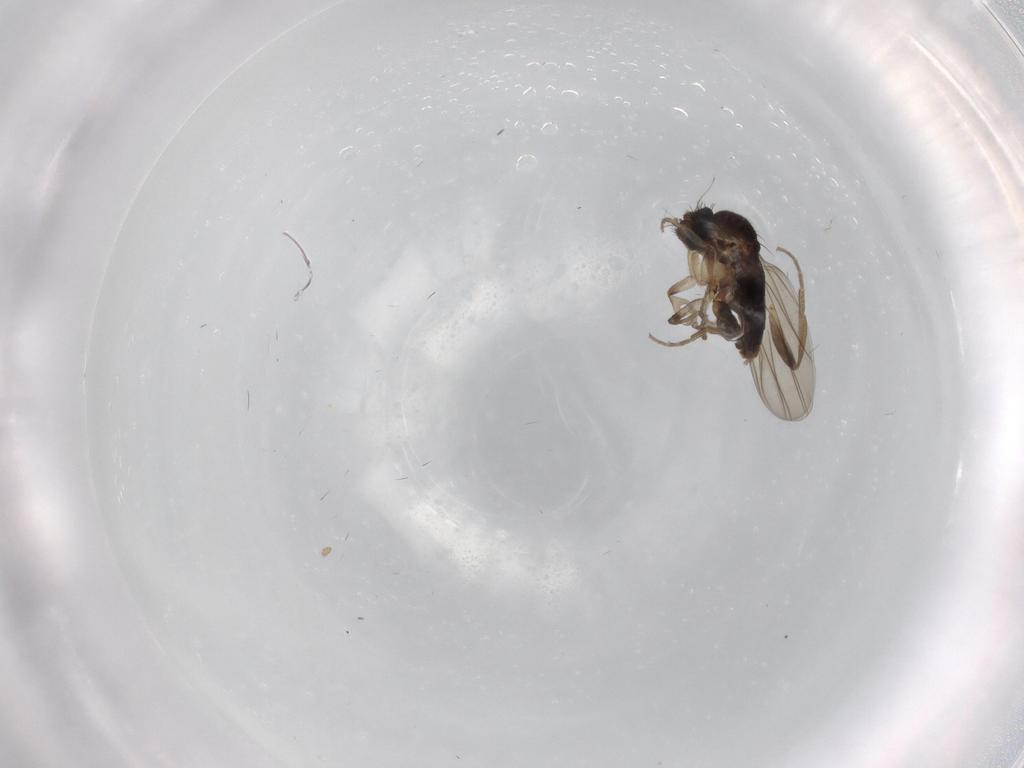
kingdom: Animalia
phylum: Arthropoda
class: Insecta
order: Diptera
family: Phoridae
